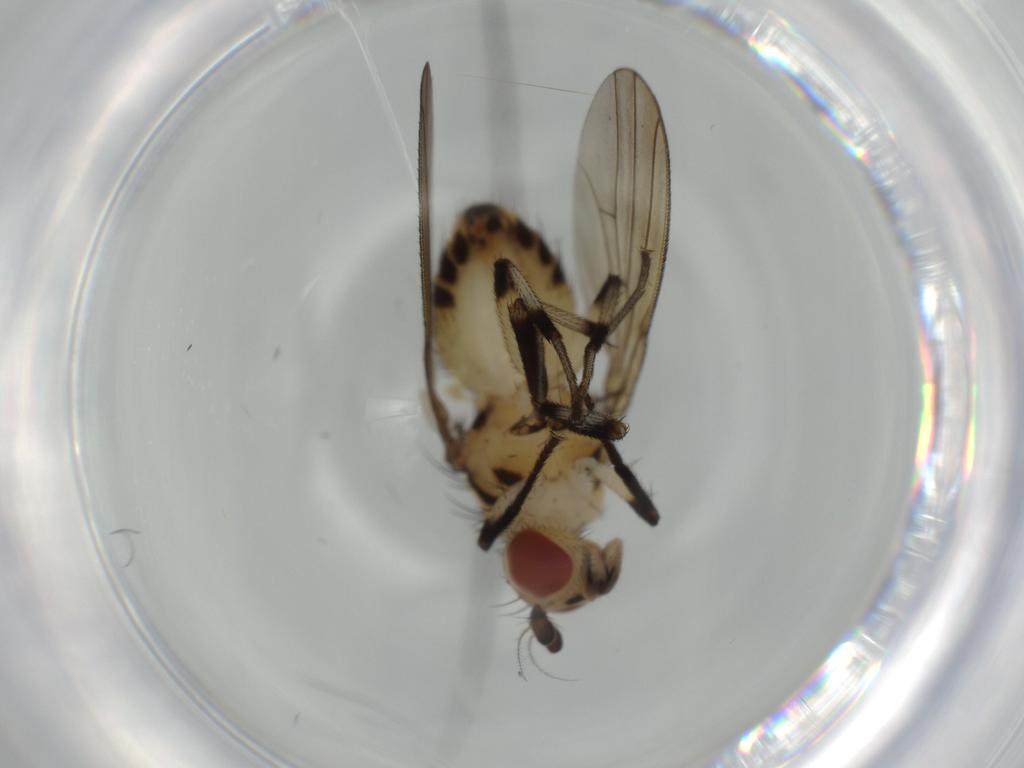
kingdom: Animalia
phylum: Arthropoda
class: Insecta
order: Diptera
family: Lauxaniidae
